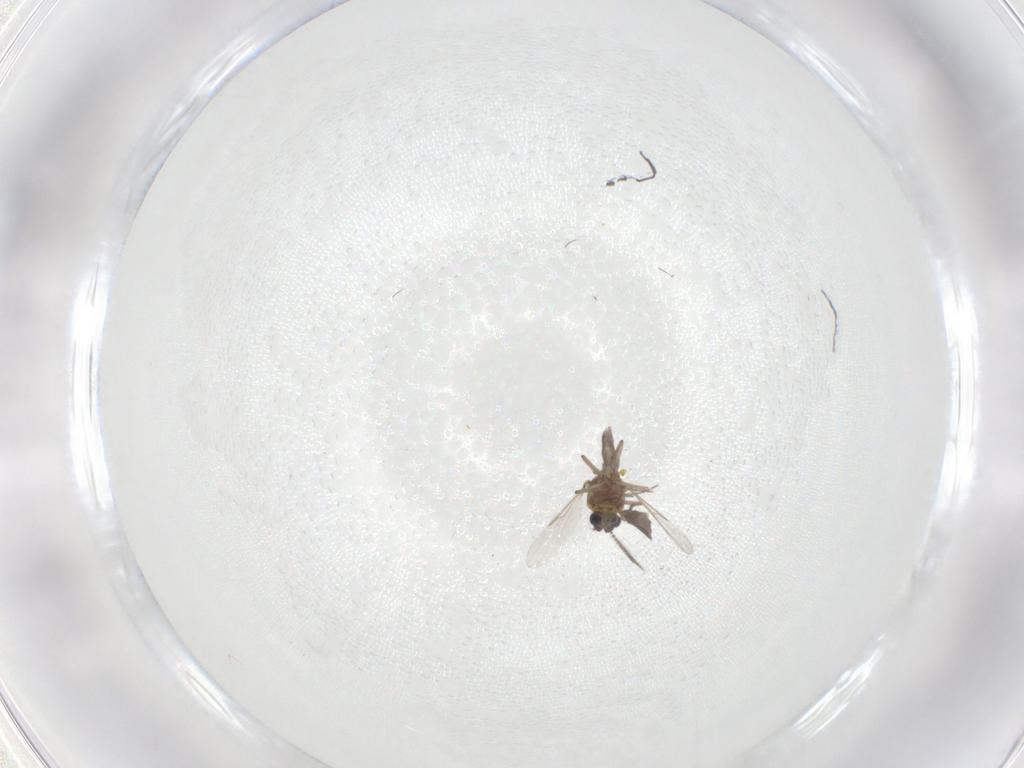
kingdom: Animalia
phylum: Arthropoda
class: Insecta
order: Diptera
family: Ceratopogonidae
